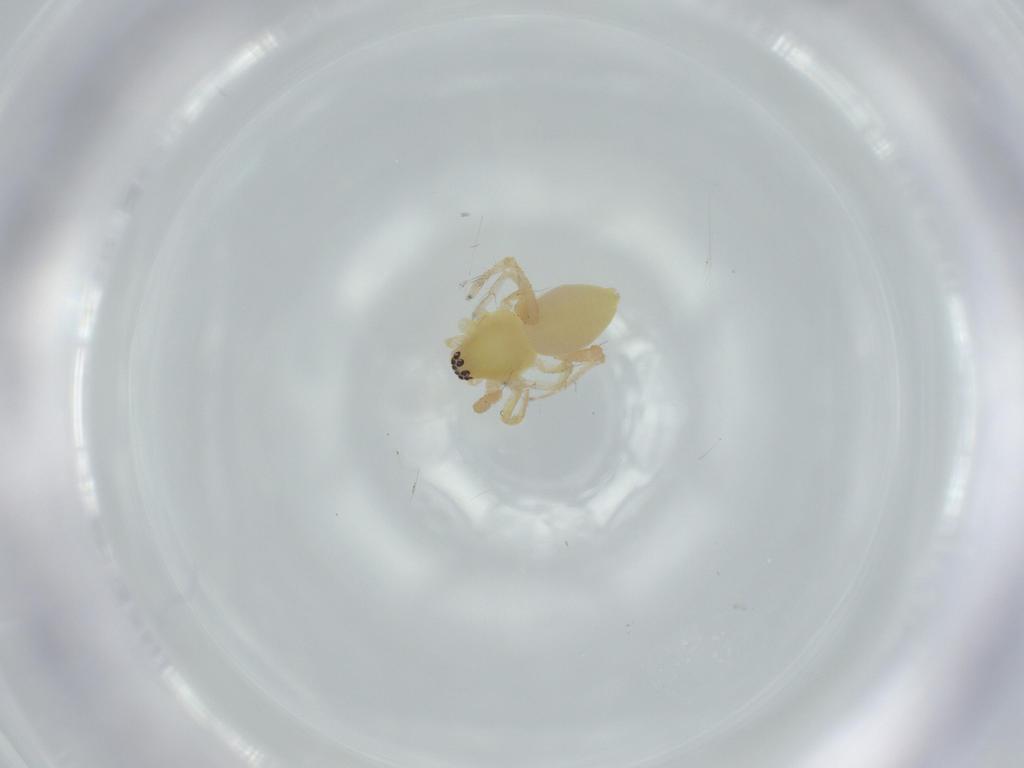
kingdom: Animalia
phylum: Arthropoda
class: Arachnida
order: Araneae
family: Anyphaenidae
